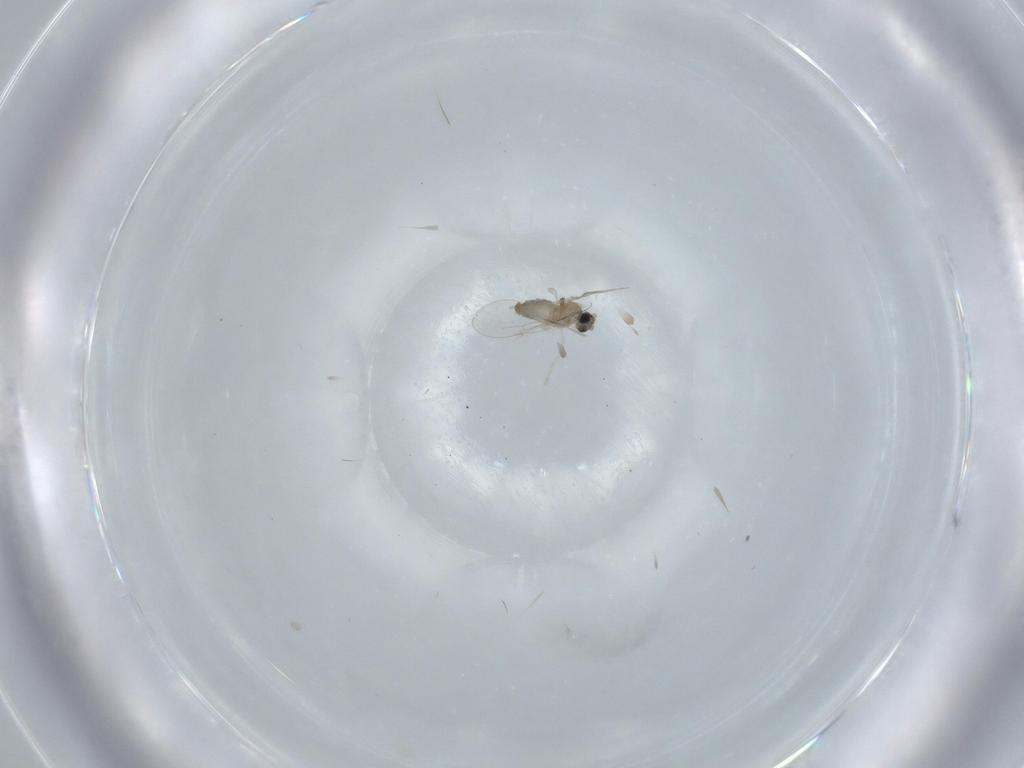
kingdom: Animalia
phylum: Arthropoda
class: Insecta
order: Diptera
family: Cecidomyiidae
